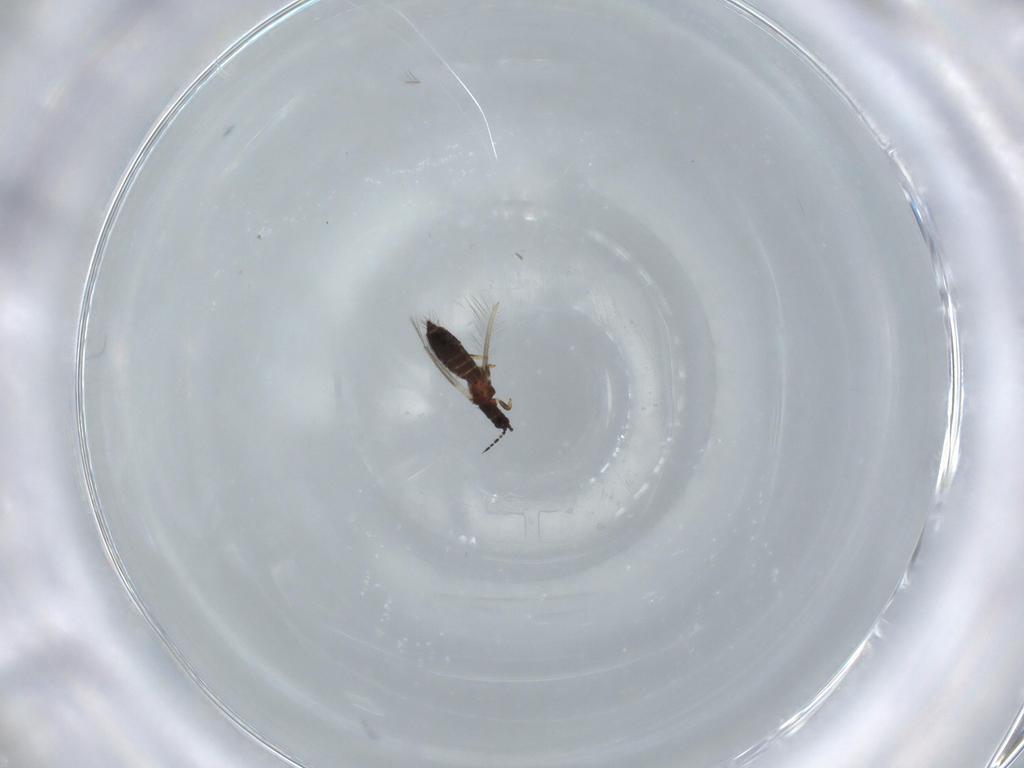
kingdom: Animalia
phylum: Arthropoda
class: Insecta
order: Thysanoptera
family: Thripidae
